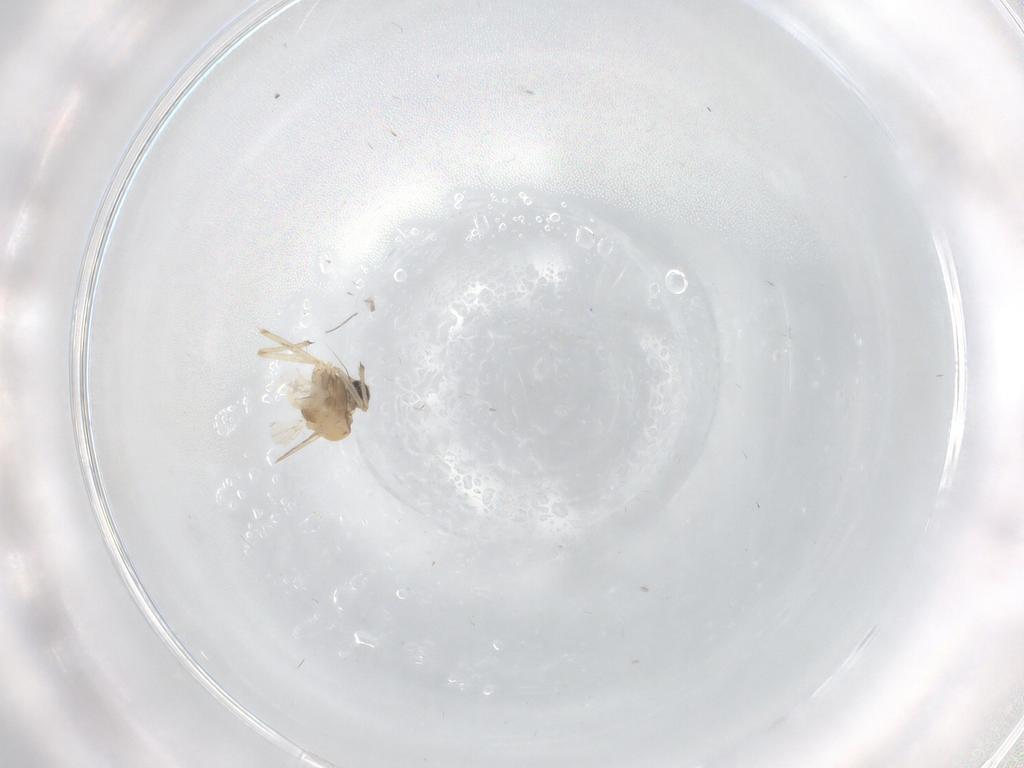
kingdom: Animalia
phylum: Arthropoda
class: Insecta
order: Diptera
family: Chironomidae
